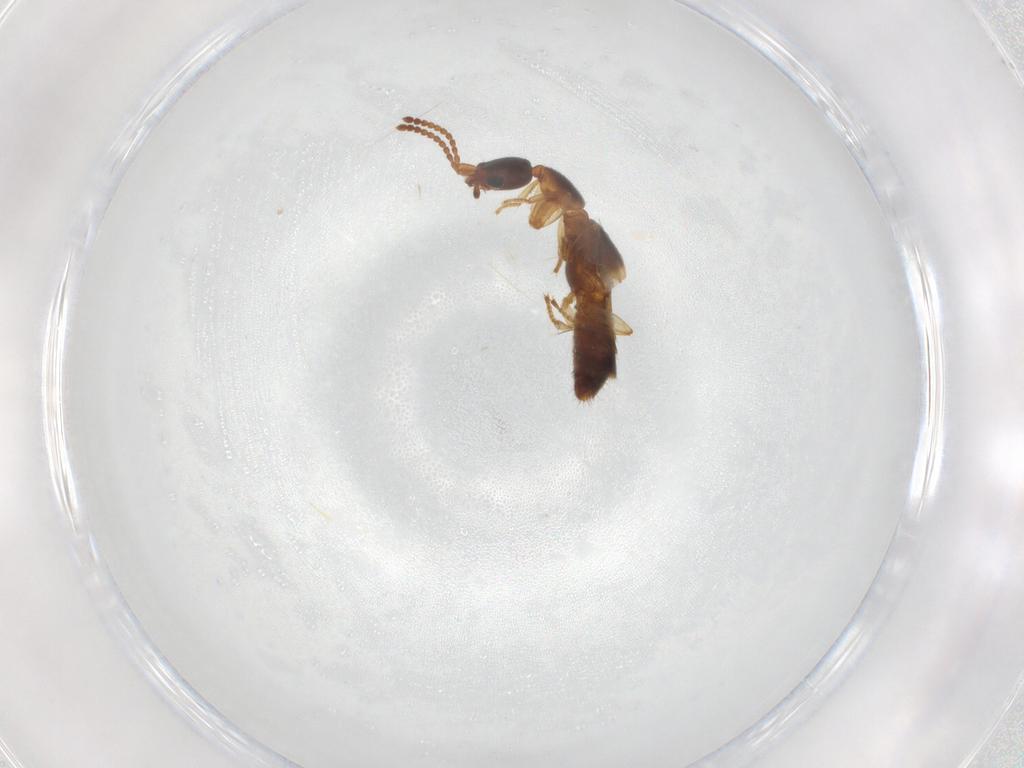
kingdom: Animalia
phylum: Arthropoda
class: Insecta
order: Coleoptera
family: Staphylinidae
